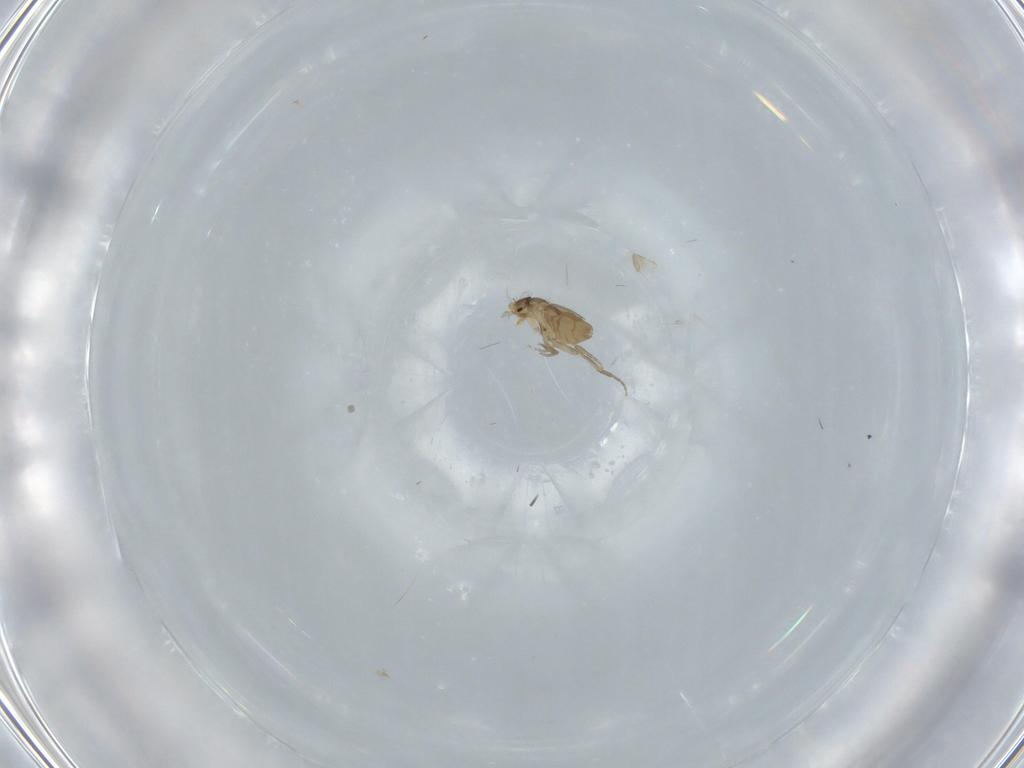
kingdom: Animalia
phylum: Arthropoda
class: Insecta
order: Diptera
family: Phoridae
